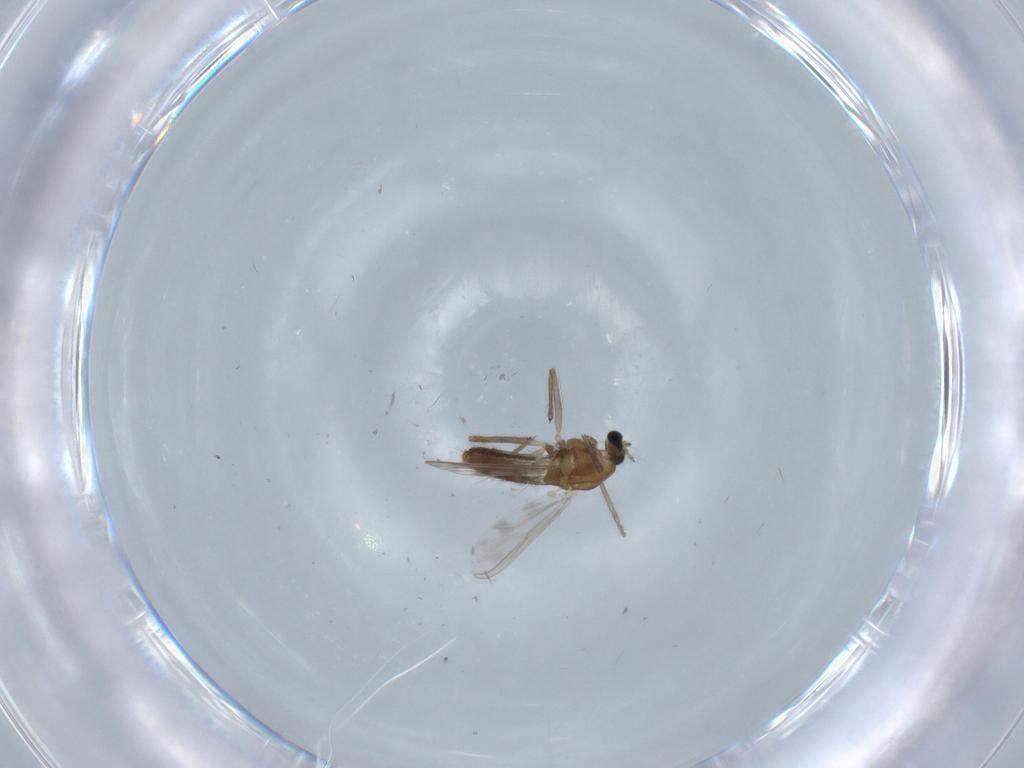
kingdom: Animalia
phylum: Arthropoda
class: Insecta
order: Diptera
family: Chironomidae
